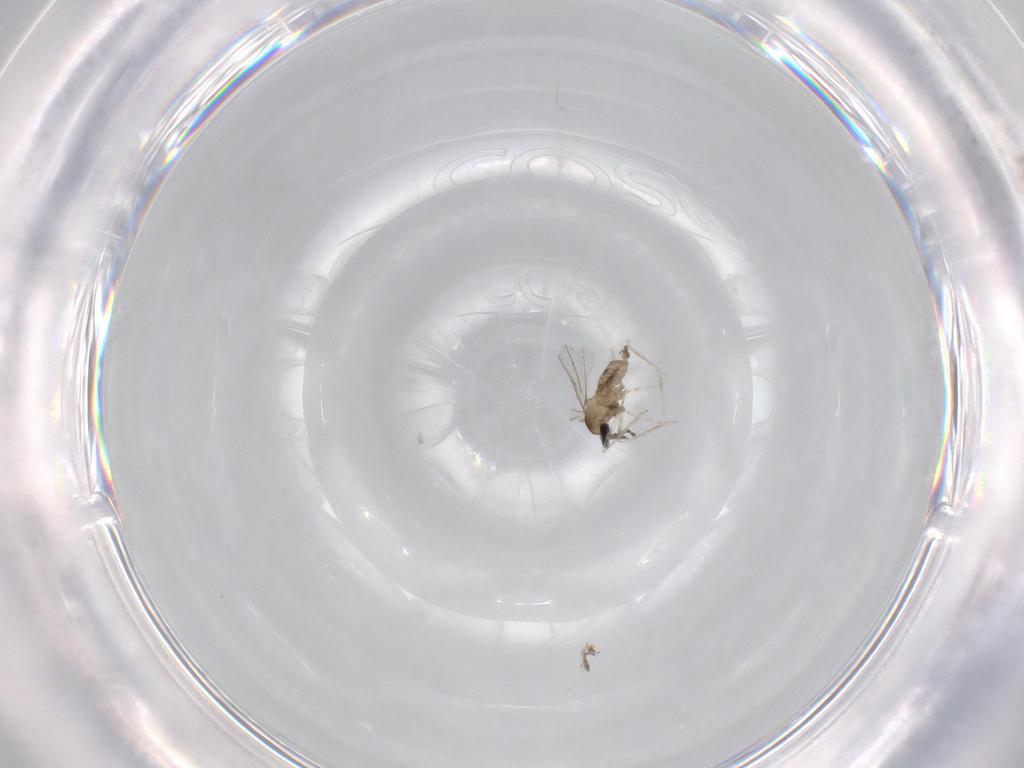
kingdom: Animalia
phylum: Arthropoda
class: Insecta
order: Diptera
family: Cecidomyiidae
